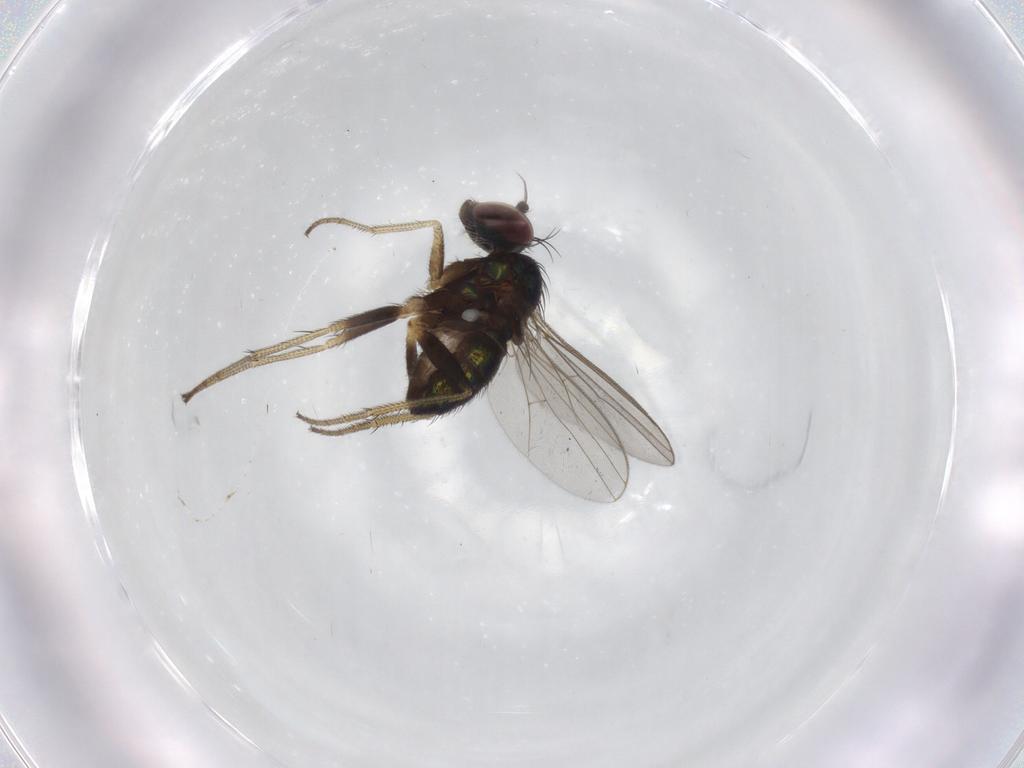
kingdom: Animalia
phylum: Arthropoda
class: Insecta
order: Diptera
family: Dolichopodidae
